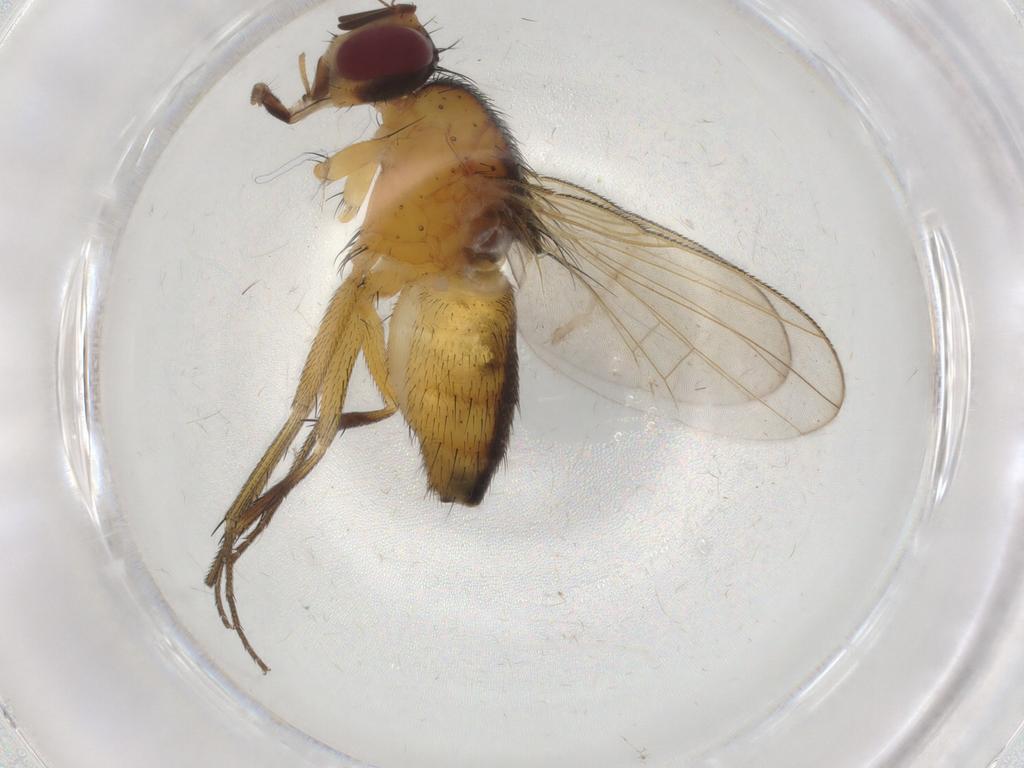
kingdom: Animalia
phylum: Arthropoda
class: Insecta
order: Diptera
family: Muscidae
